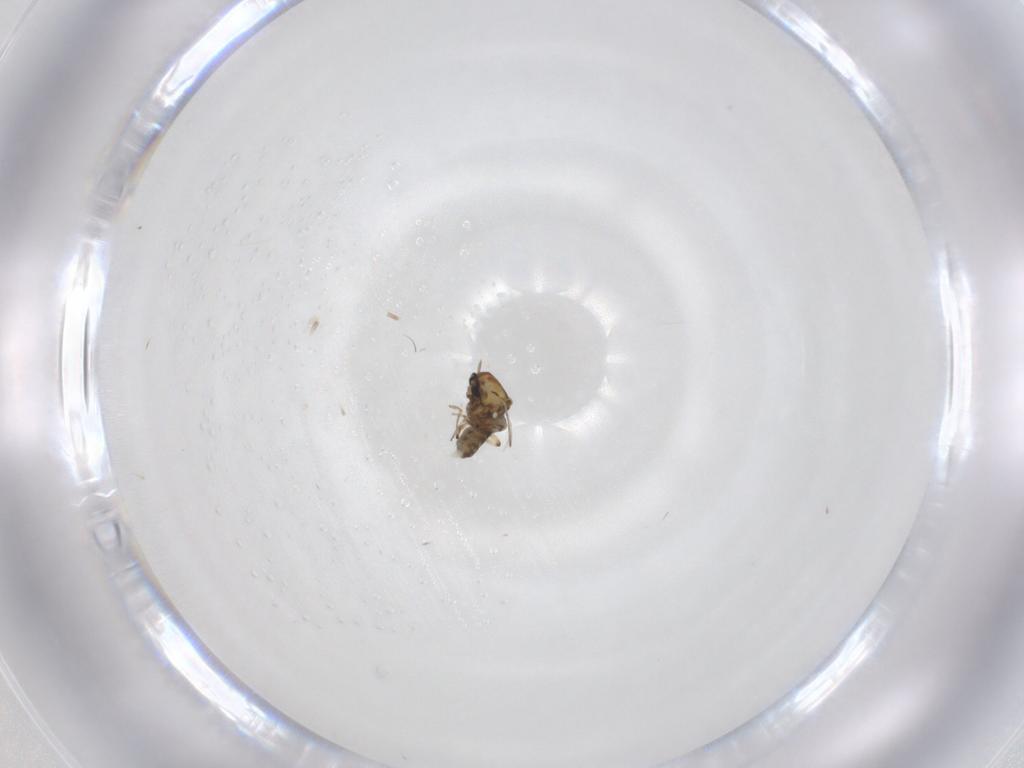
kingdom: Animalia
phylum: Arthropoda
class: Insecta
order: Diptera
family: Ceratopogonidae
